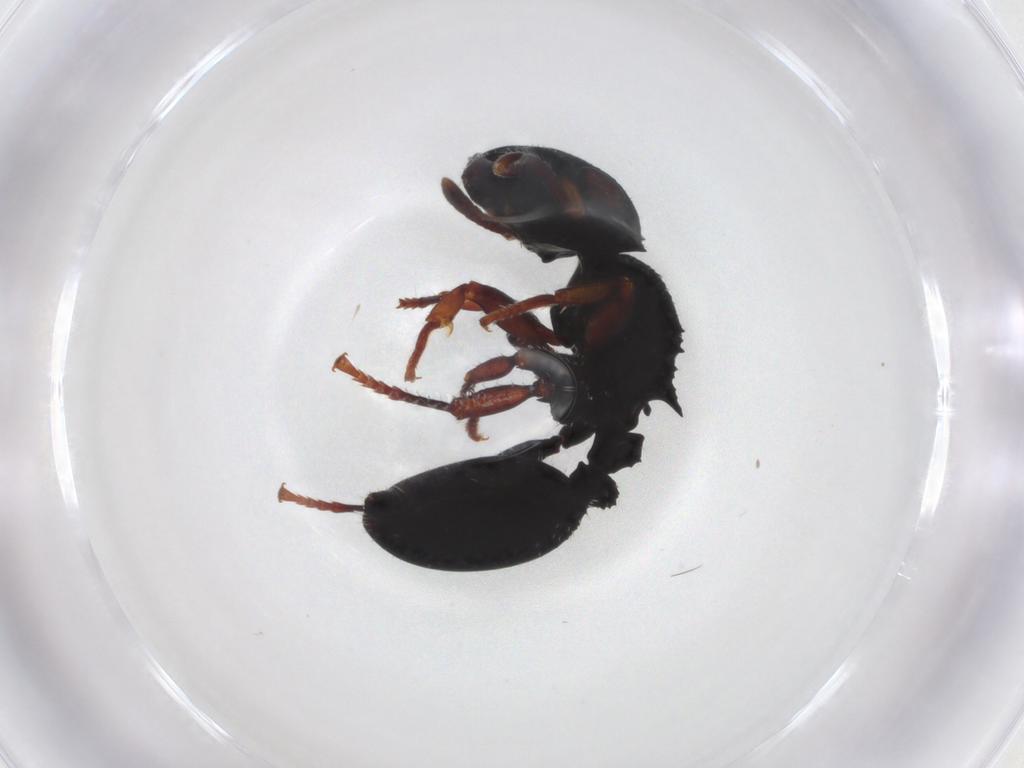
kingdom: Animalia
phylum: Arthropoda
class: Insecta
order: Hymenoptera
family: Formicidae
